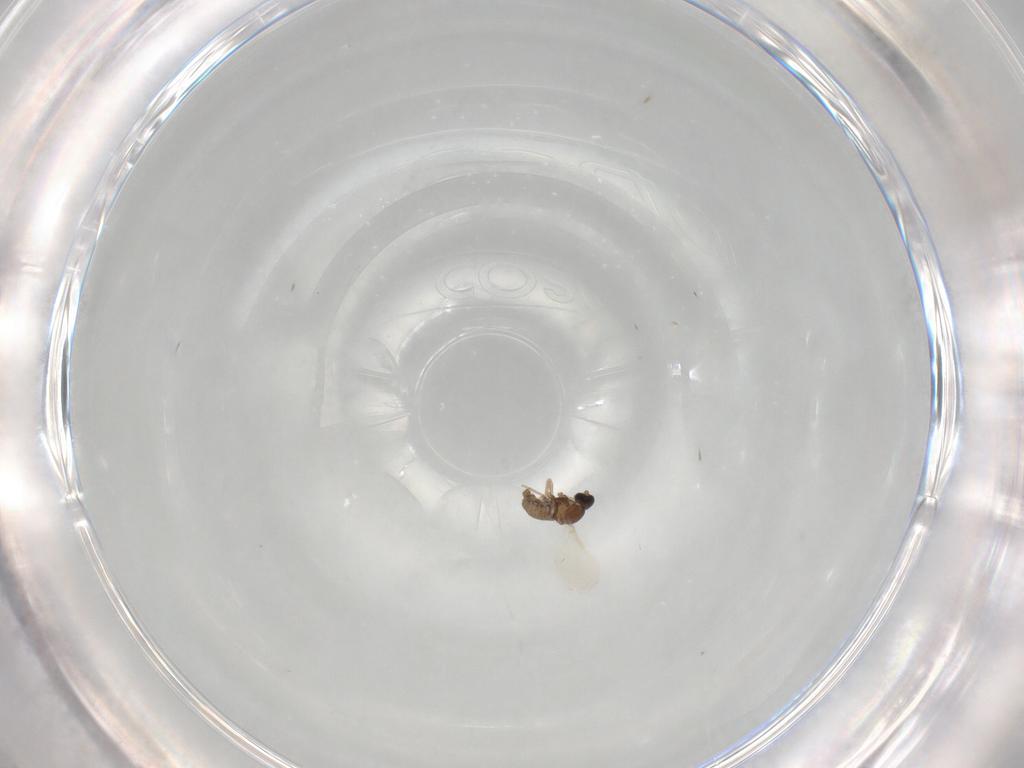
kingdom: Animalia
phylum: Arthropoda
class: Insecta
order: Diptera
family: Cecidomyiidae
